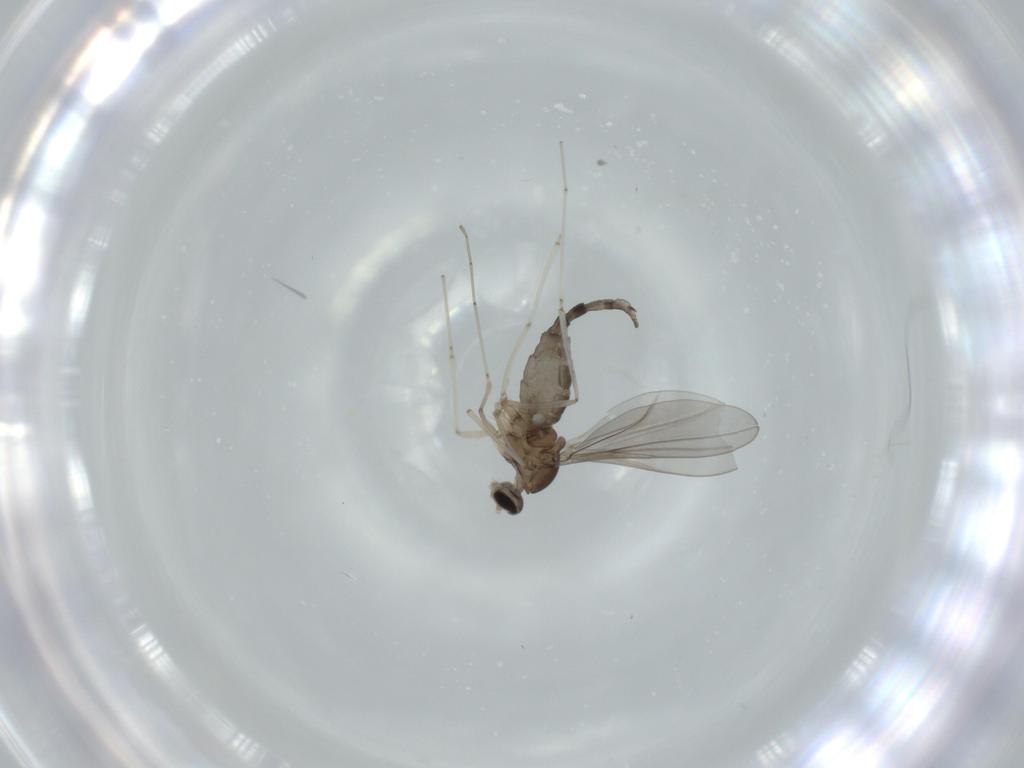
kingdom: Animalia
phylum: Arthropoda
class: Insecta
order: Diptera
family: Cecidomyiidae
